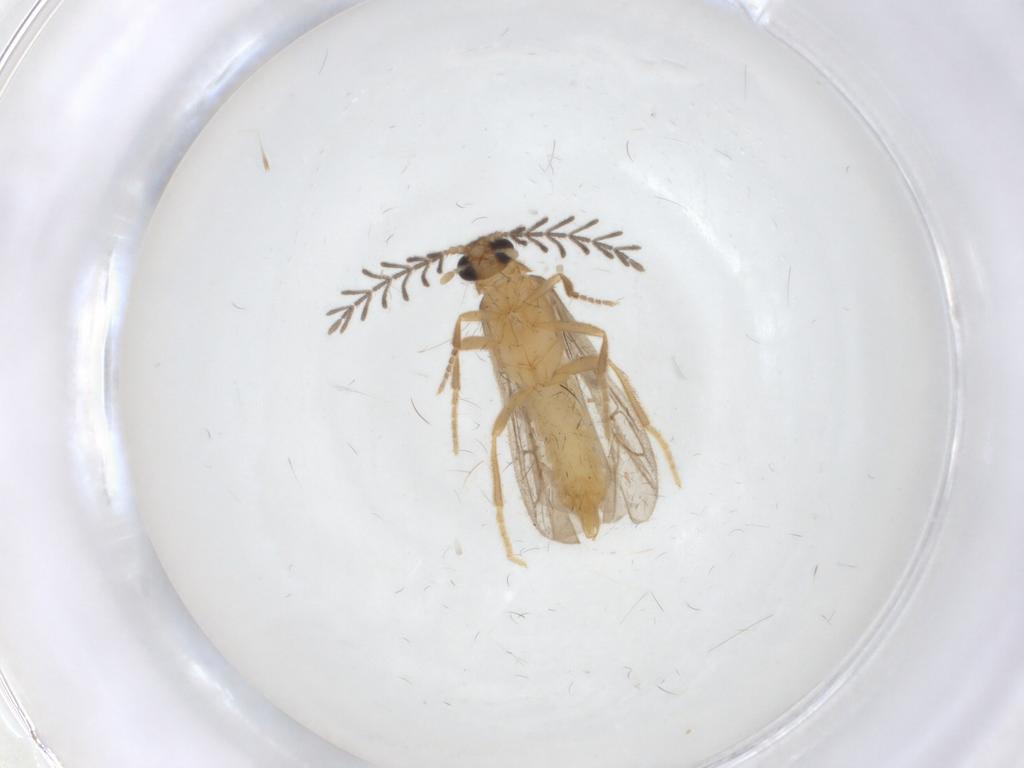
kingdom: Animalia
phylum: Arthropoda
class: Insecta
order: Coleoptera
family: Chrysomelidae
